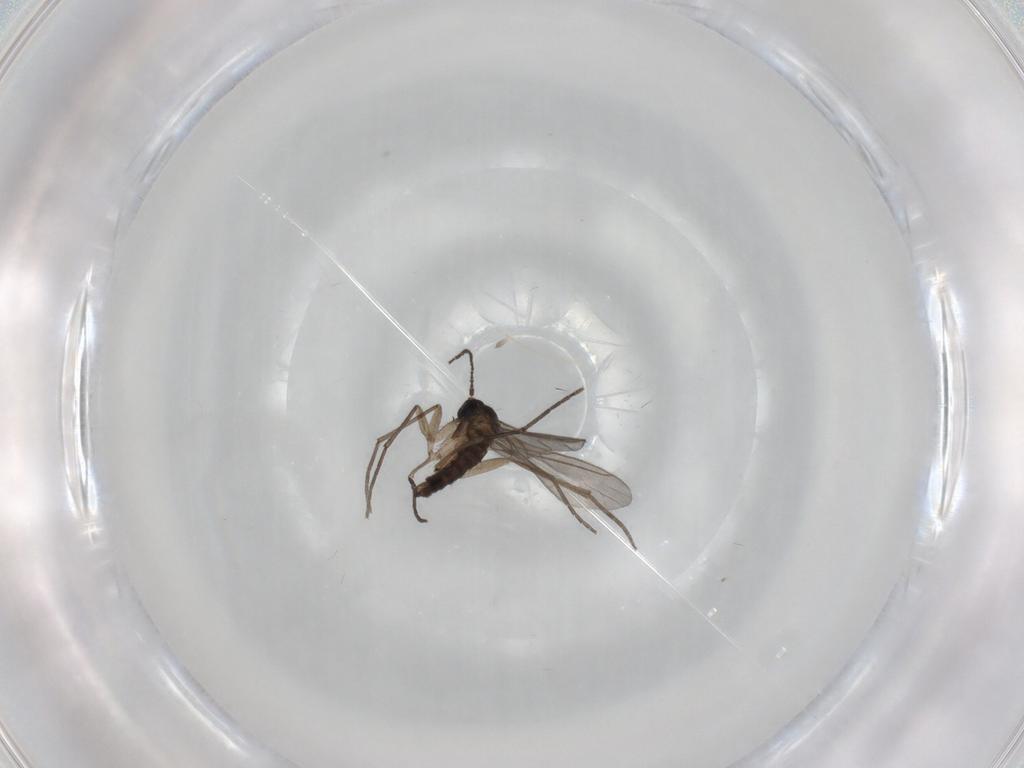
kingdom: Animalia
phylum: Arthropoda
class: Insecta
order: Diptera
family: Sciaridae
